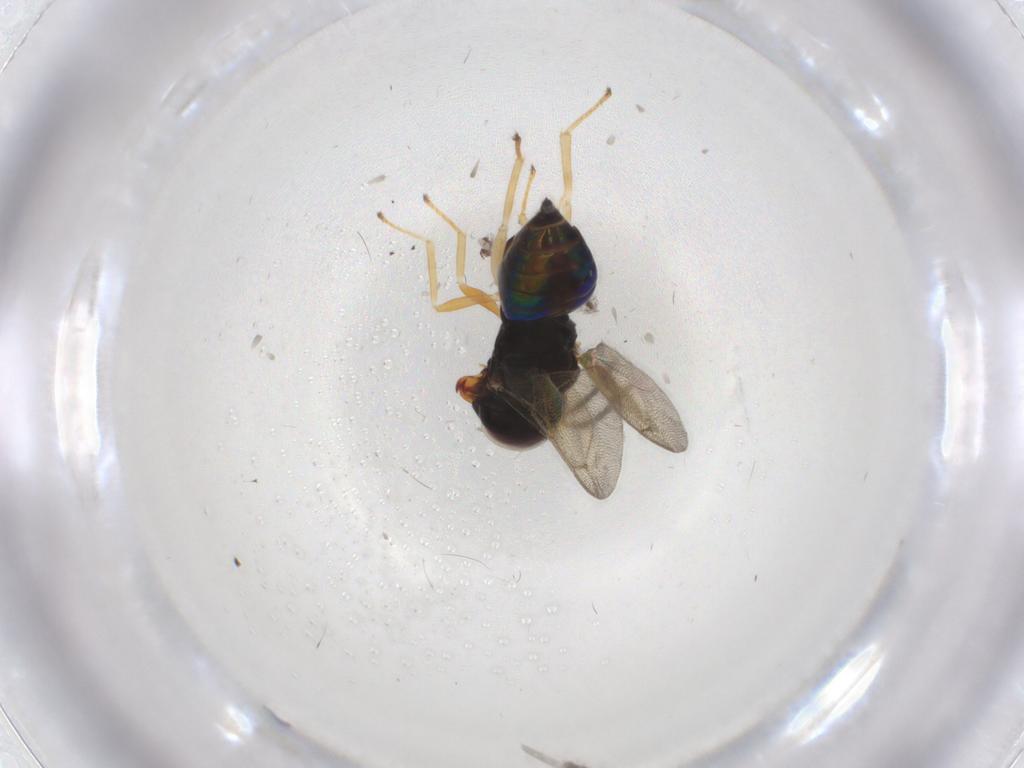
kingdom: Animalia
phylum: Arthropoda
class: Insecta
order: Hymenoptera
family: Pteromalidae
